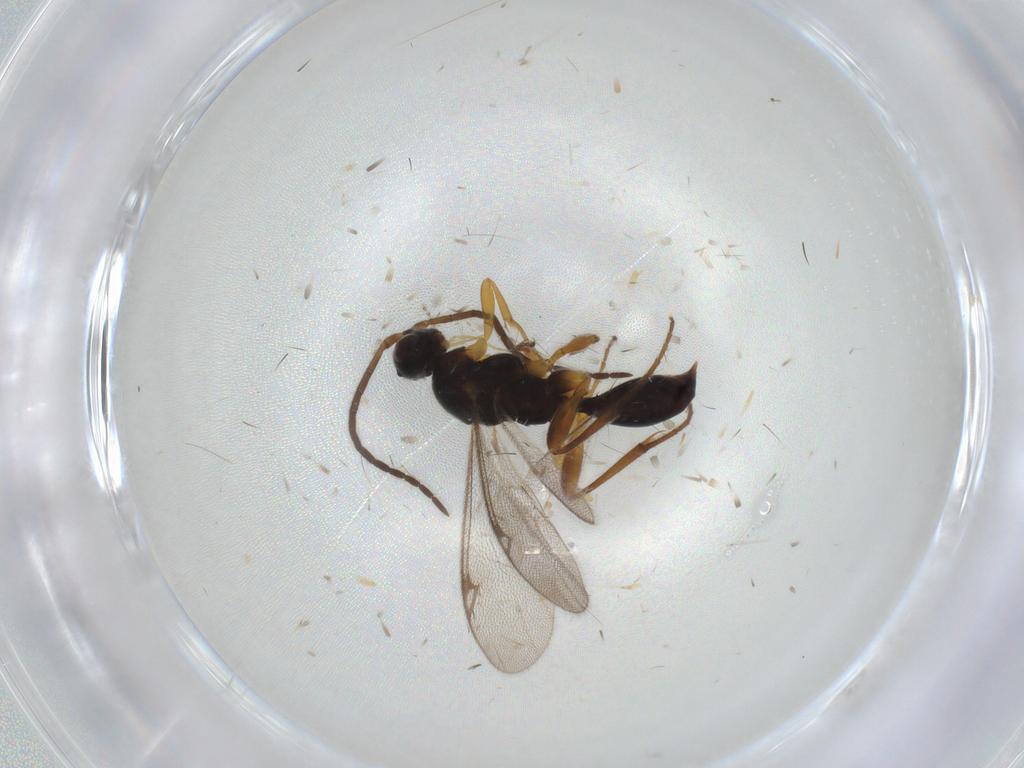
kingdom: Animalia
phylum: Arthropoda
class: Insecta
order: Hymenoptera
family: Proctotrupidae
